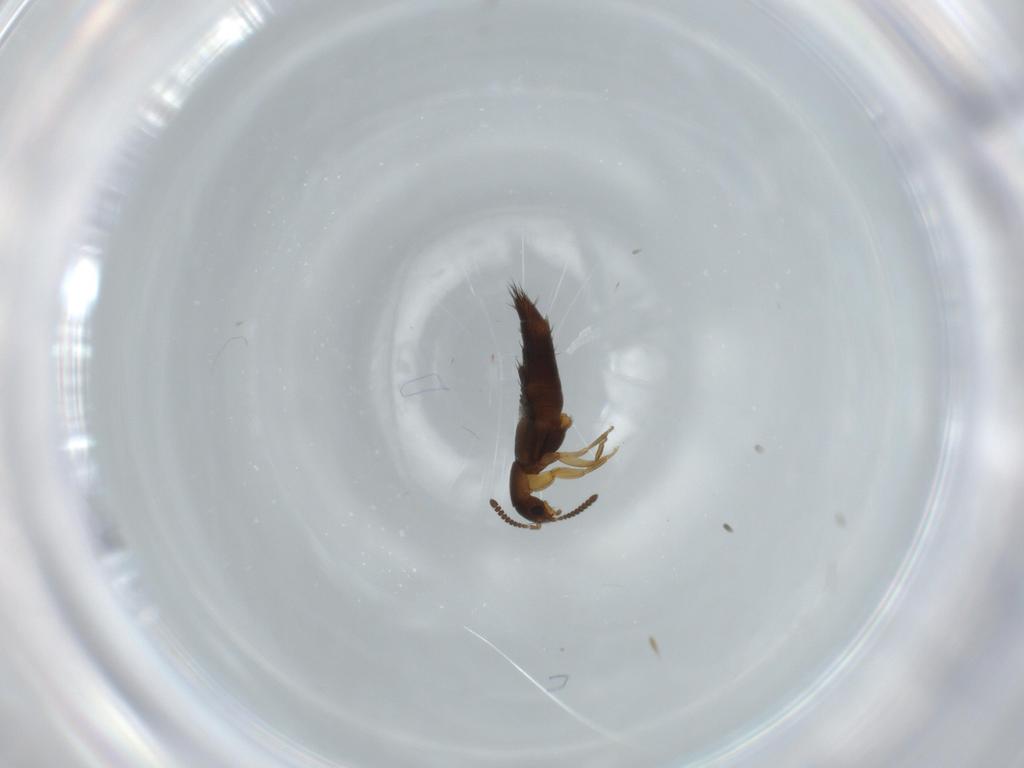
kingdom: Animalia
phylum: Arthropoda
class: Insecta
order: Coleoptera
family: Staphylinidae
